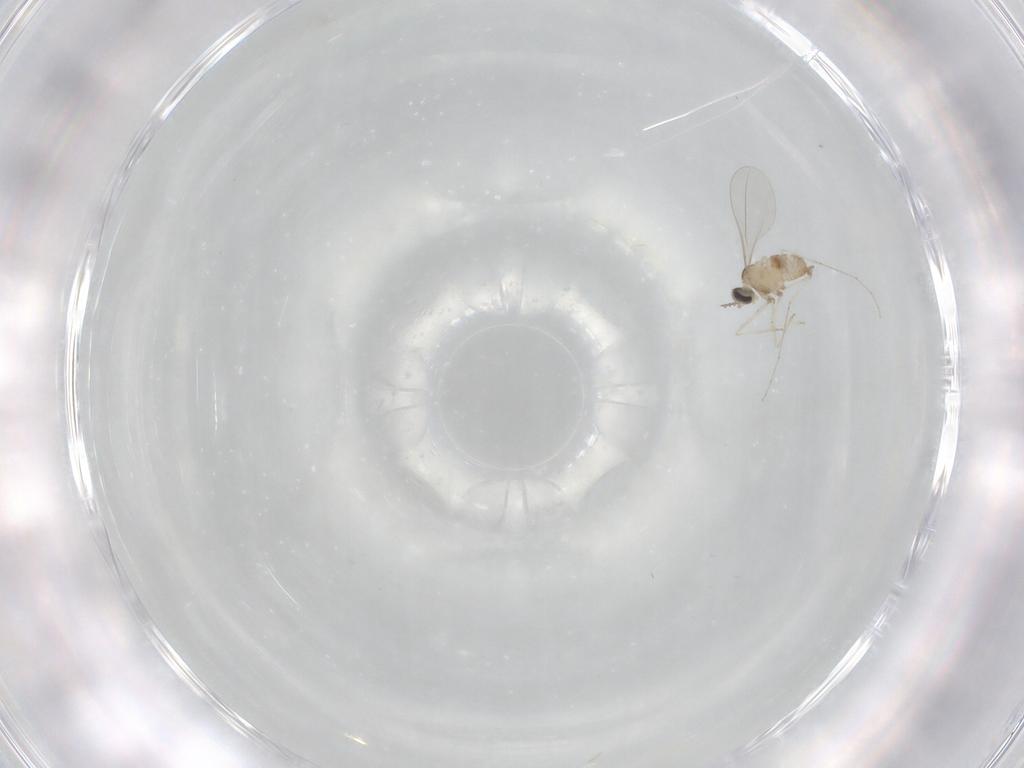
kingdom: Animalia
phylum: Arthropoda
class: Insecta
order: Diptera
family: Cecidomyiidae
